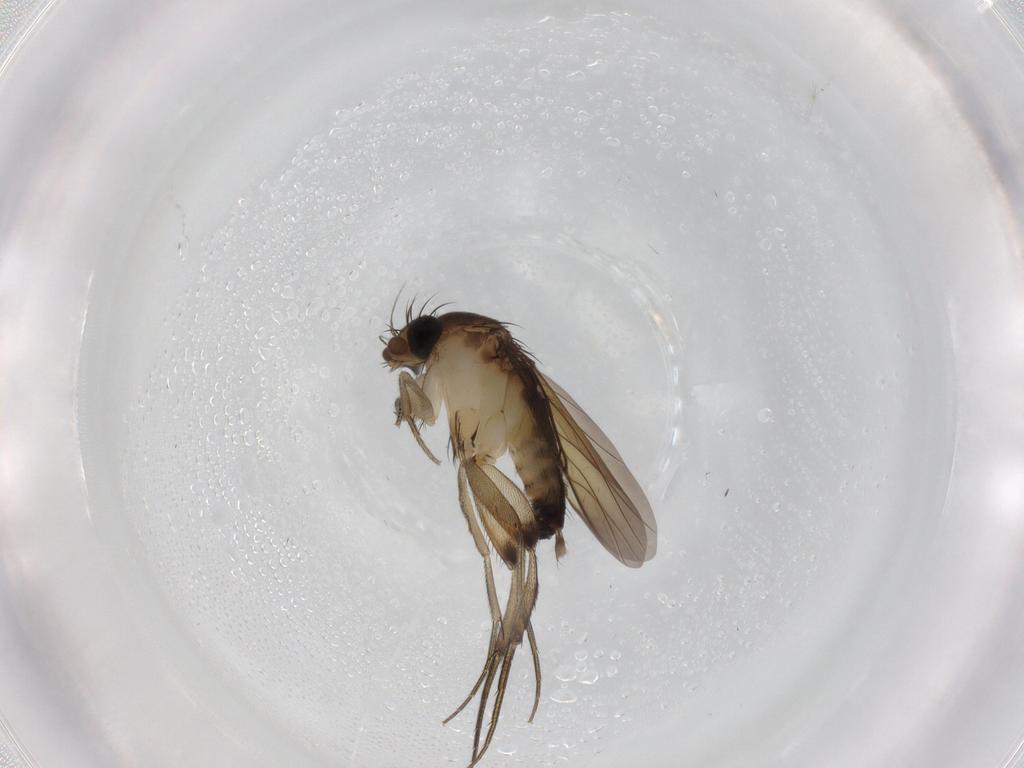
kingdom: Animalia
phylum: Arthropoda
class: Insecta
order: Diptera
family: Phoridae
